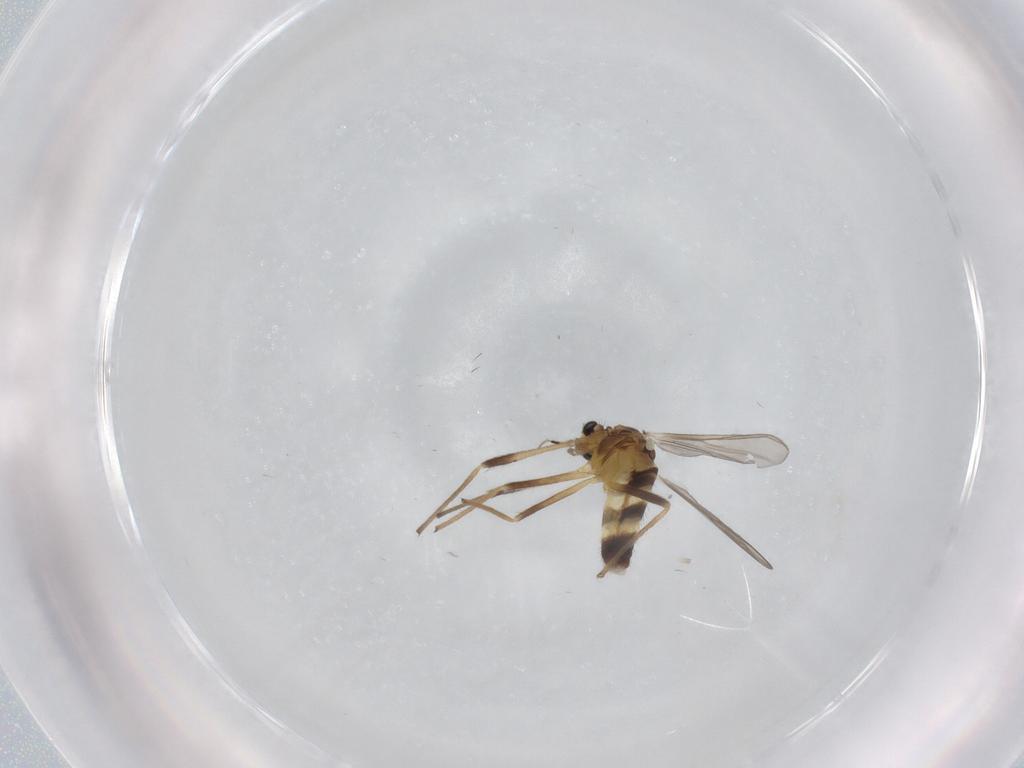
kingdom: Animalia
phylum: Arthropoda
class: Insecta
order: Diptera
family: Chironomidae
